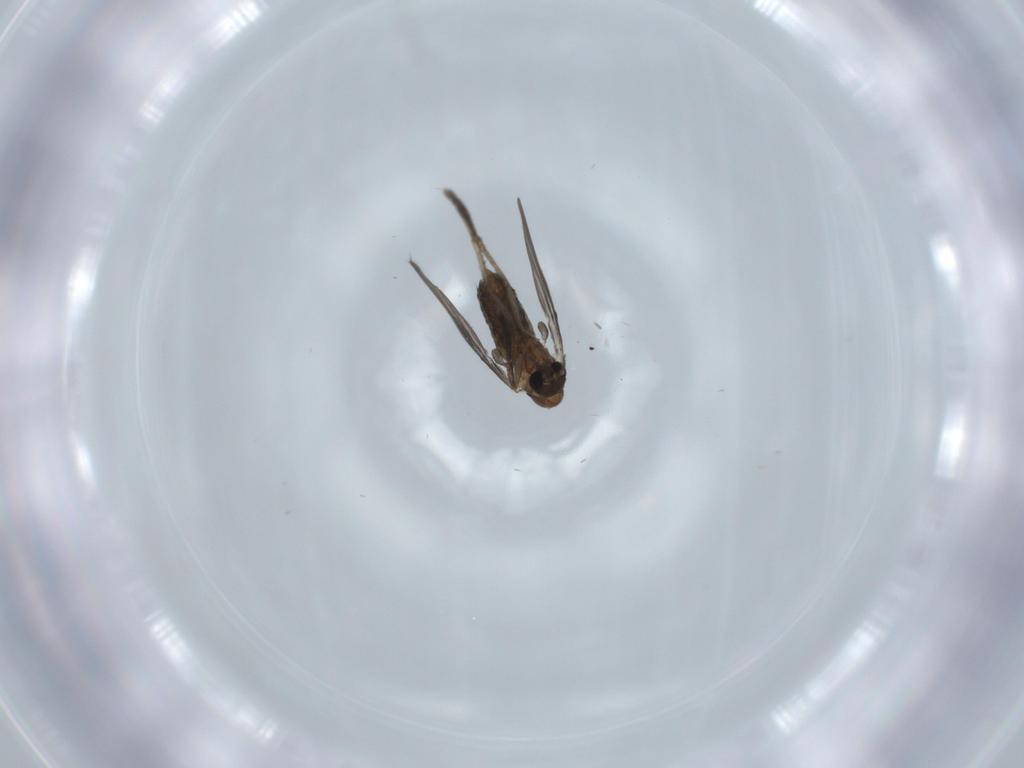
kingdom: Animalia
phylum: Arthropoda
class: Insecta
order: Diptera
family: Psychodidae
